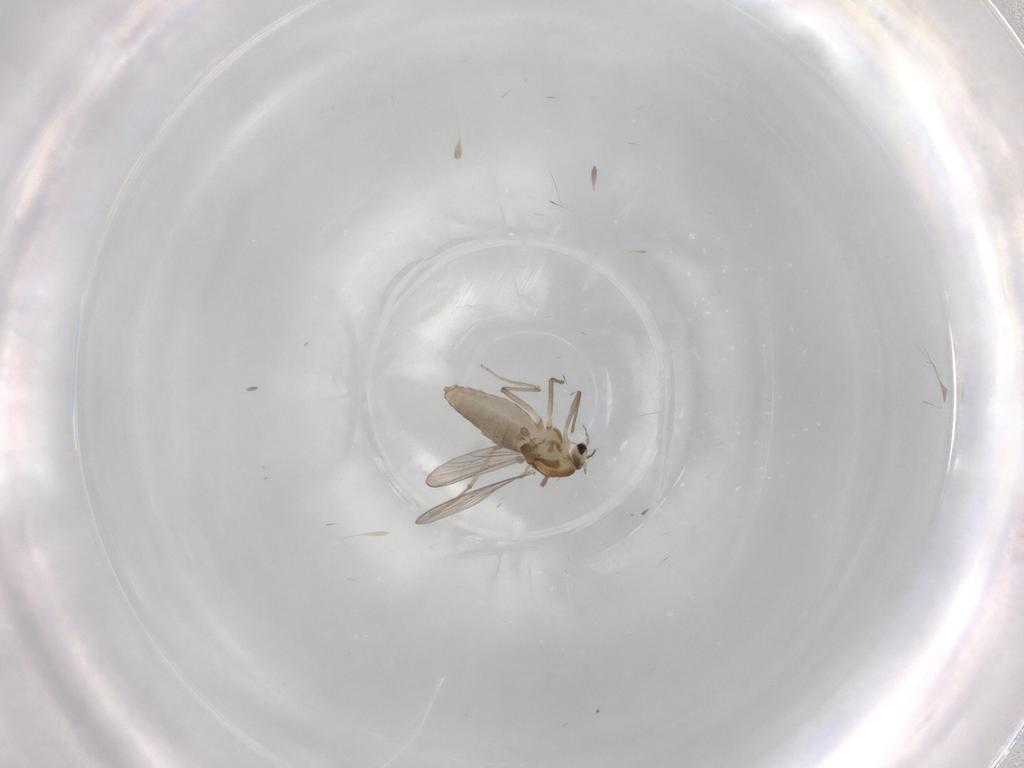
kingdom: Animalia
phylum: Arthropoda
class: Insecta
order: Diptera
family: Chironomidae
